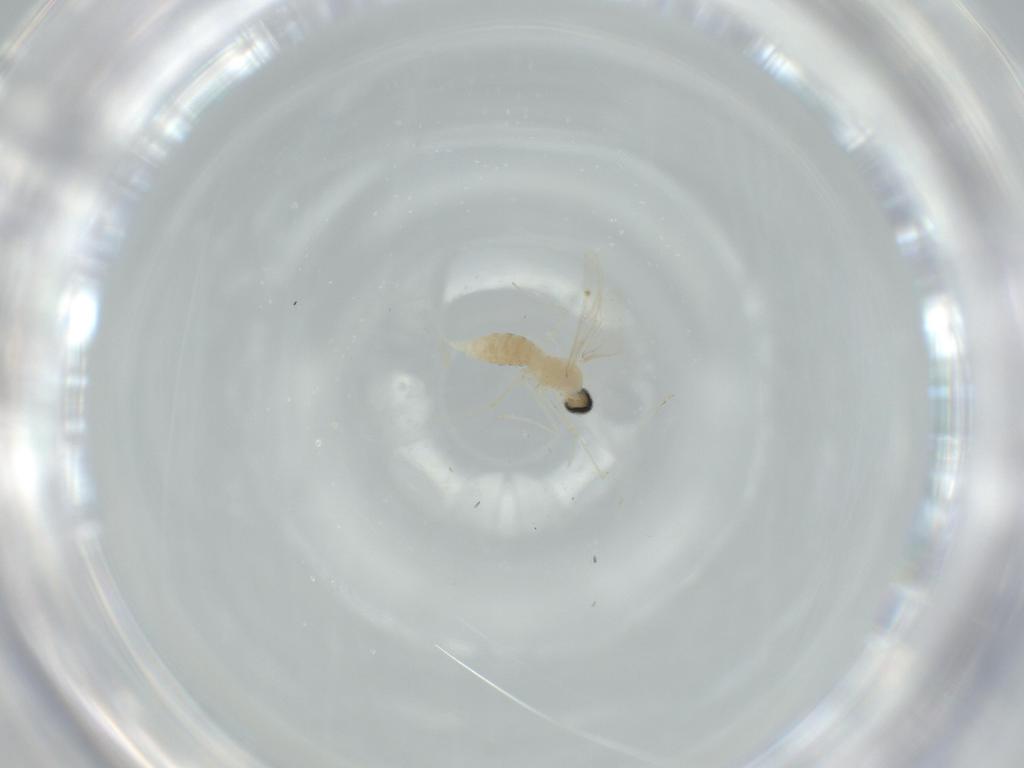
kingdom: Animalia
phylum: Arthropoda
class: Insecta
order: Diptera
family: Cecidomyiidae
